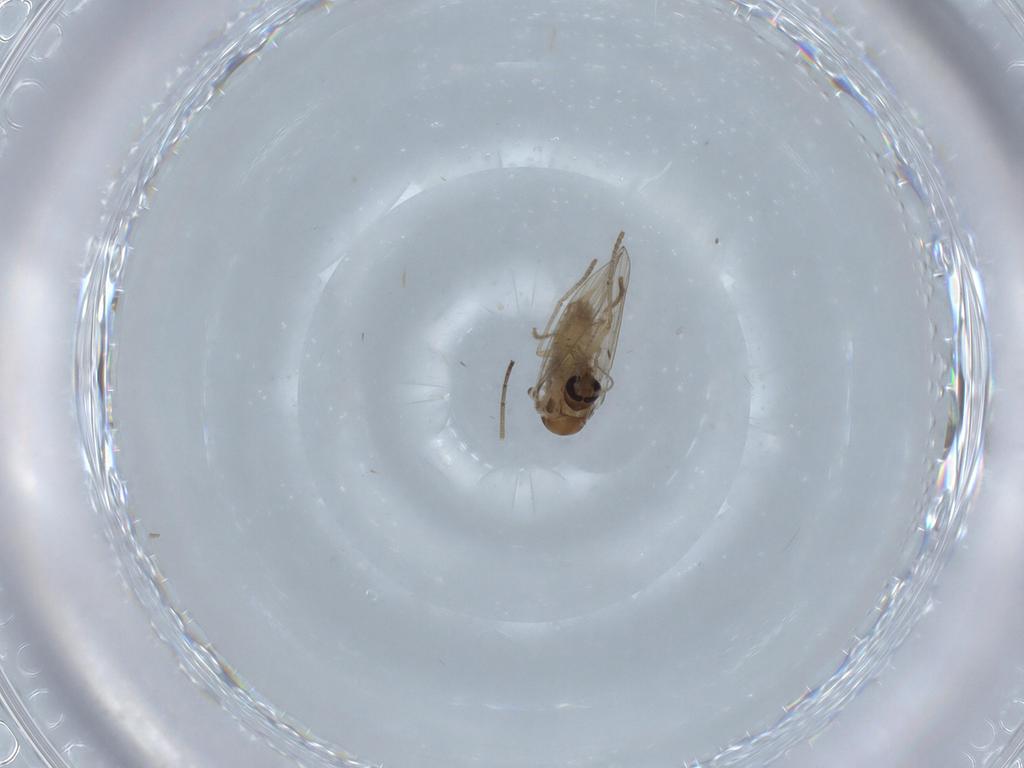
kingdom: Animalia
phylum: Arthropoda
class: Insecta
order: Diptera
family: Cecidomyiidae
